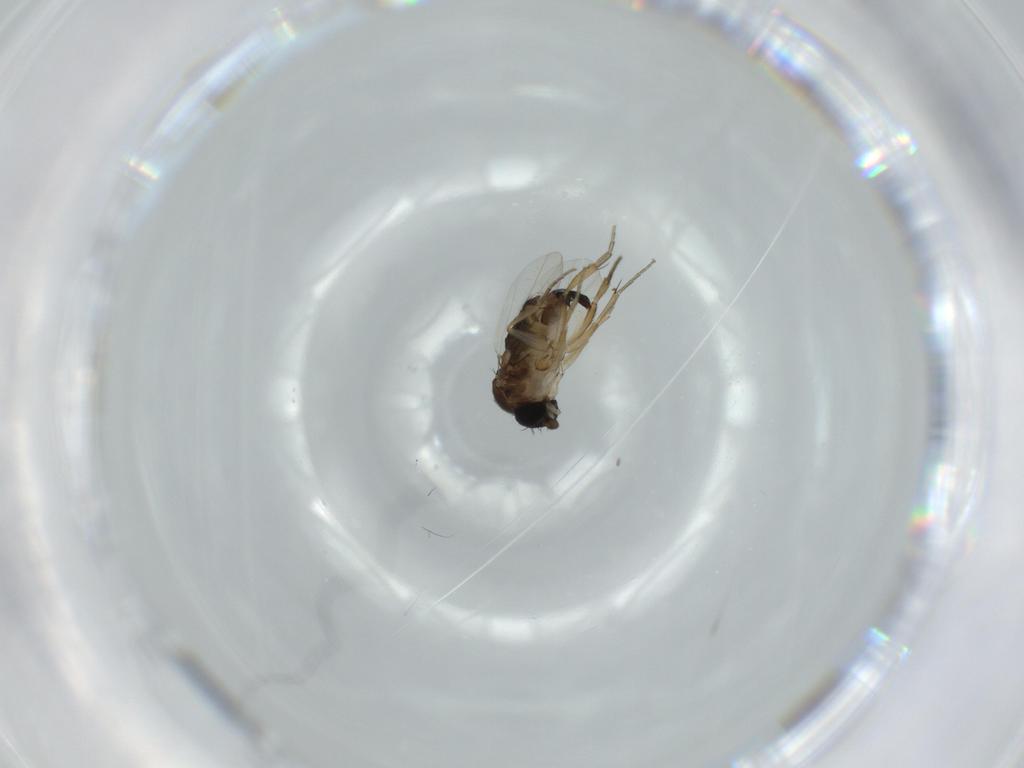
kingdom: Animalia
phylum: Arthropoda
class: Insecta
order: Diptera
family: Phoridae
